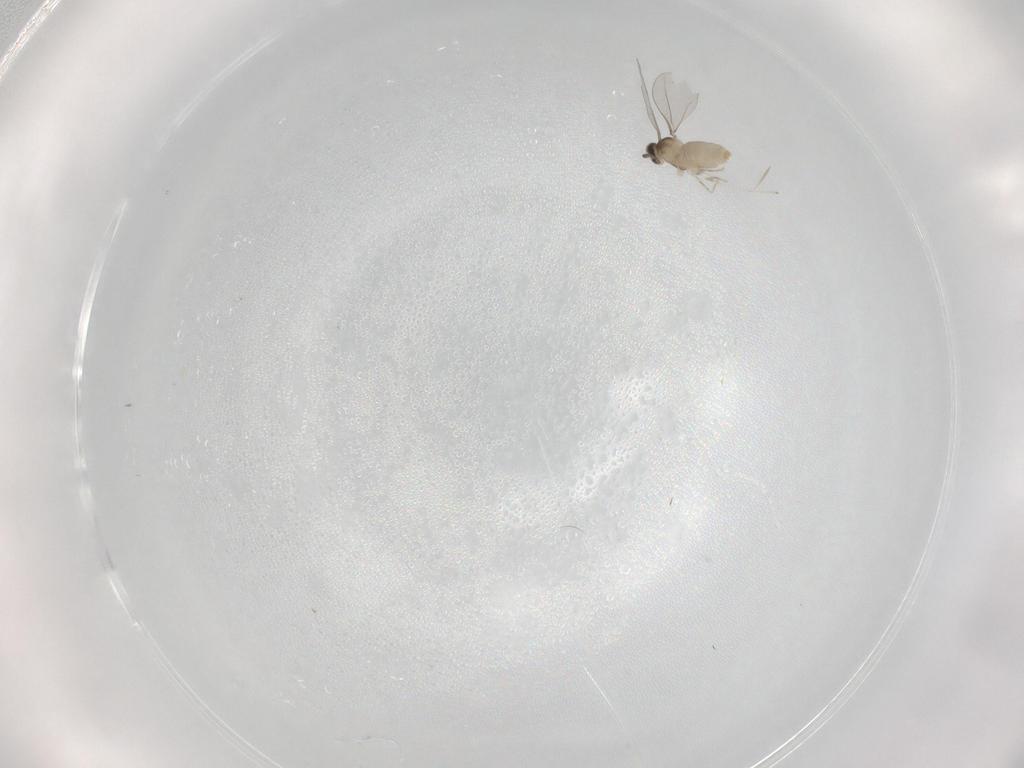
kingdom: Animalia
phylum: Arthropoda
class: Insecta
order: Diptera
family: Cecidomyiidae
